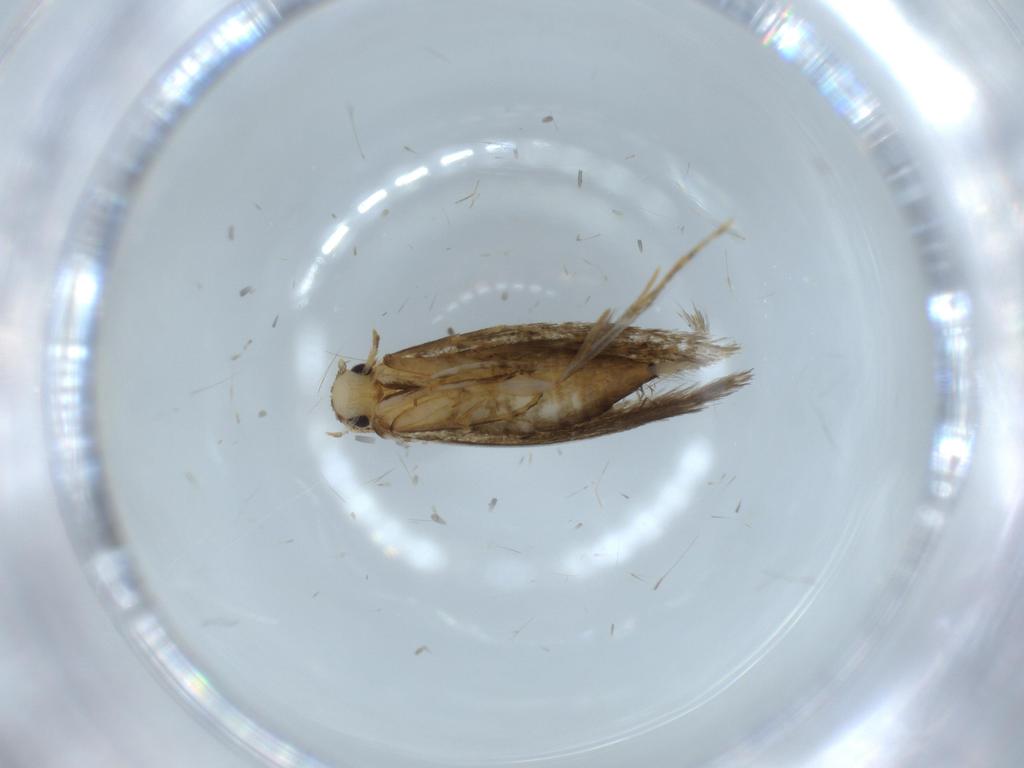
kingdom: Animalia
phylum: Arthropoda
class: Insecta
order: Lepidoptera
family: Tineidae
